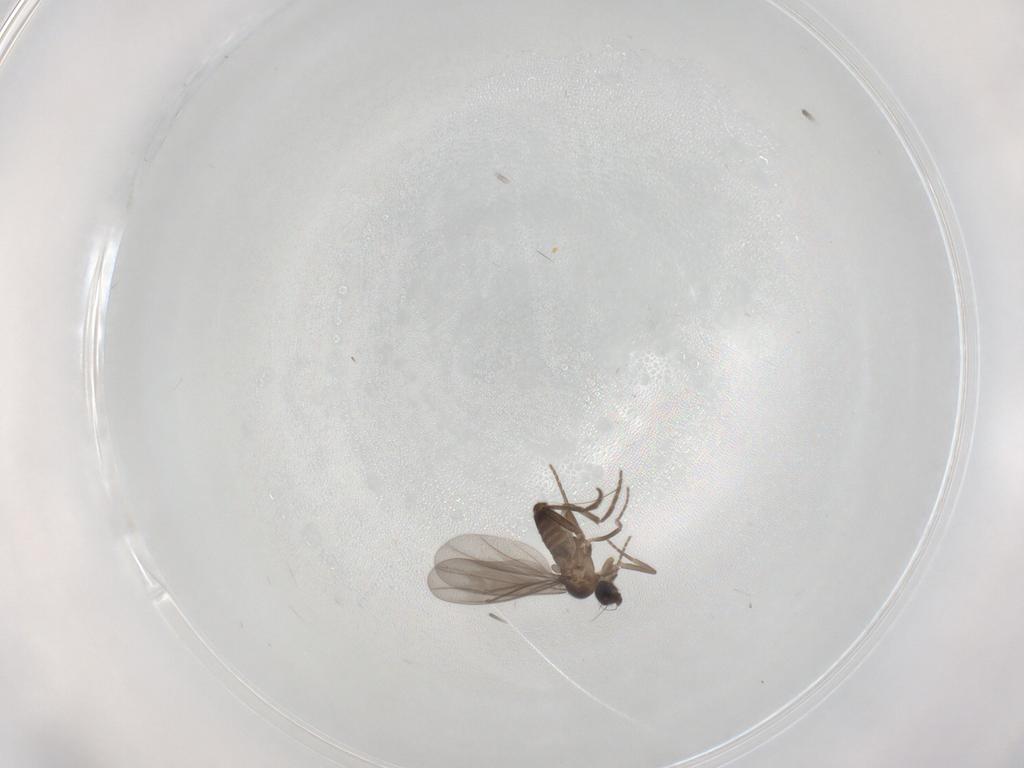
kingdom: Animalia
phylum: Arthropoda
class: Insecta
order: Diptera
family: Phoridae
